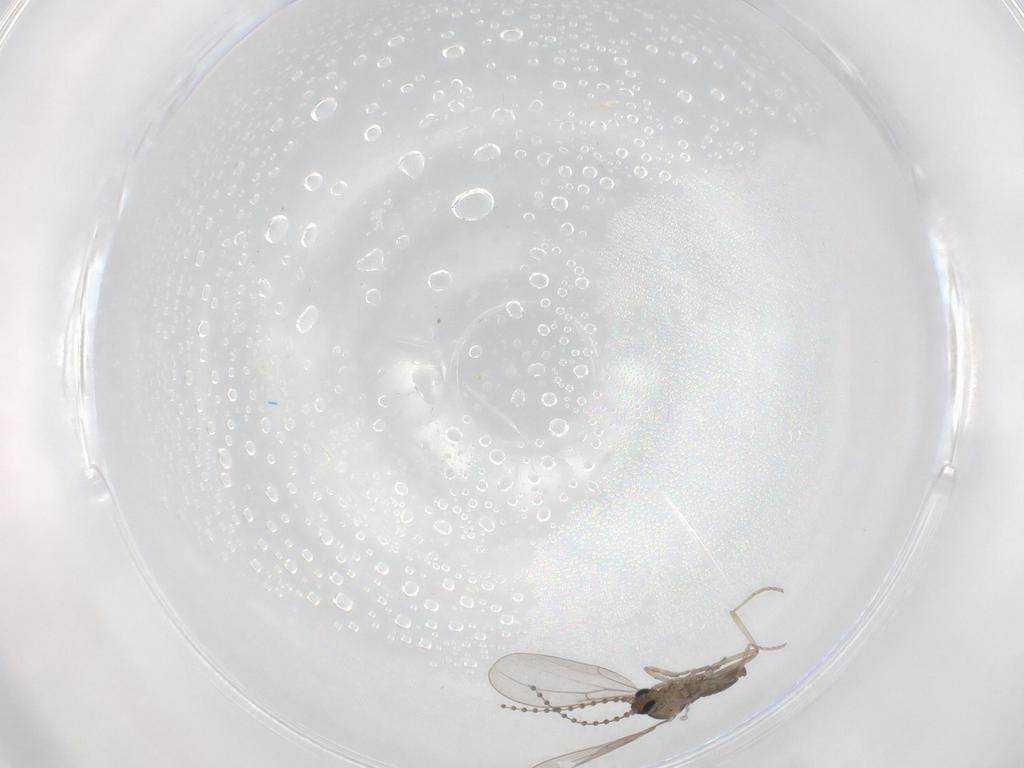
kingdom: Animalia
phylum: Arthropoda
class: Insecta
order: Diptera
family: Chironomidae
